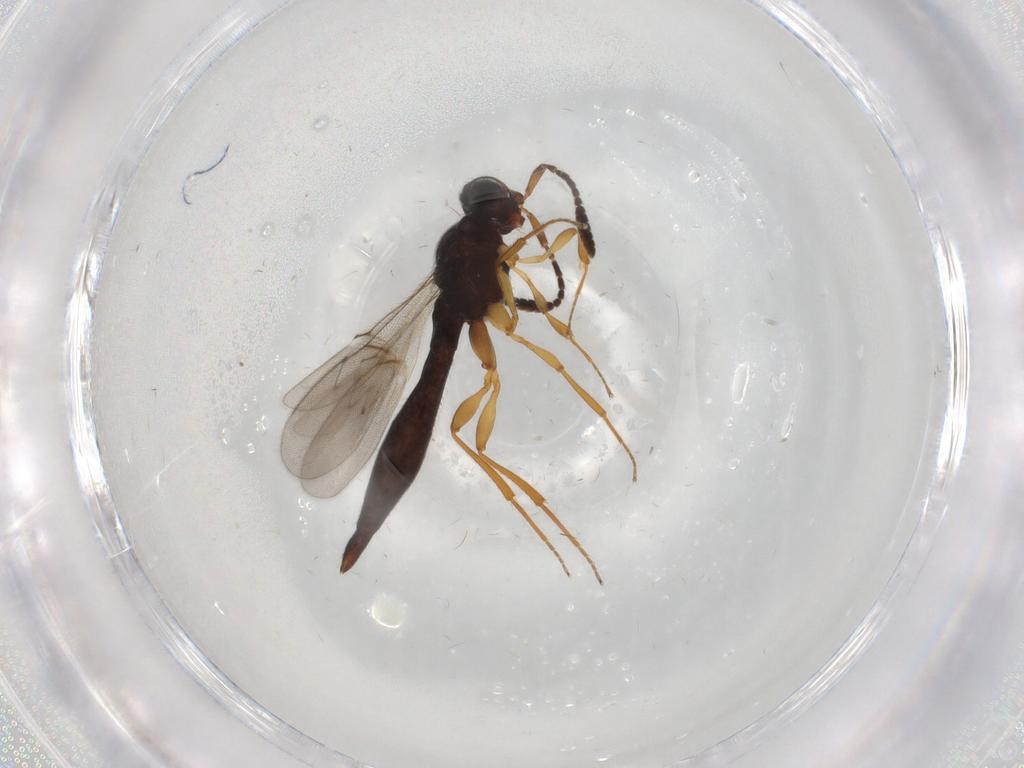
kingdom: Animalia
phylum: Arthropoda
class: Insecta
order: Hymenoptera
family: Scelionidae
